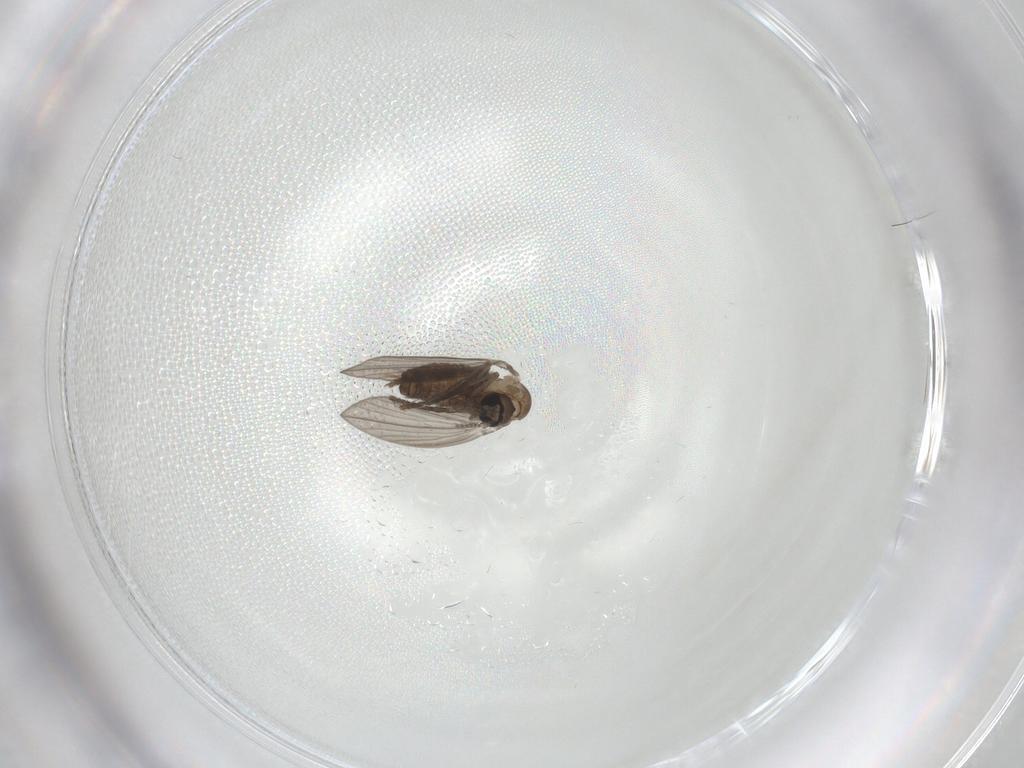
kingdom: Animalia
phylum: Arthropoda
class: Insecta
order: Diptera
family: Psychodidae
